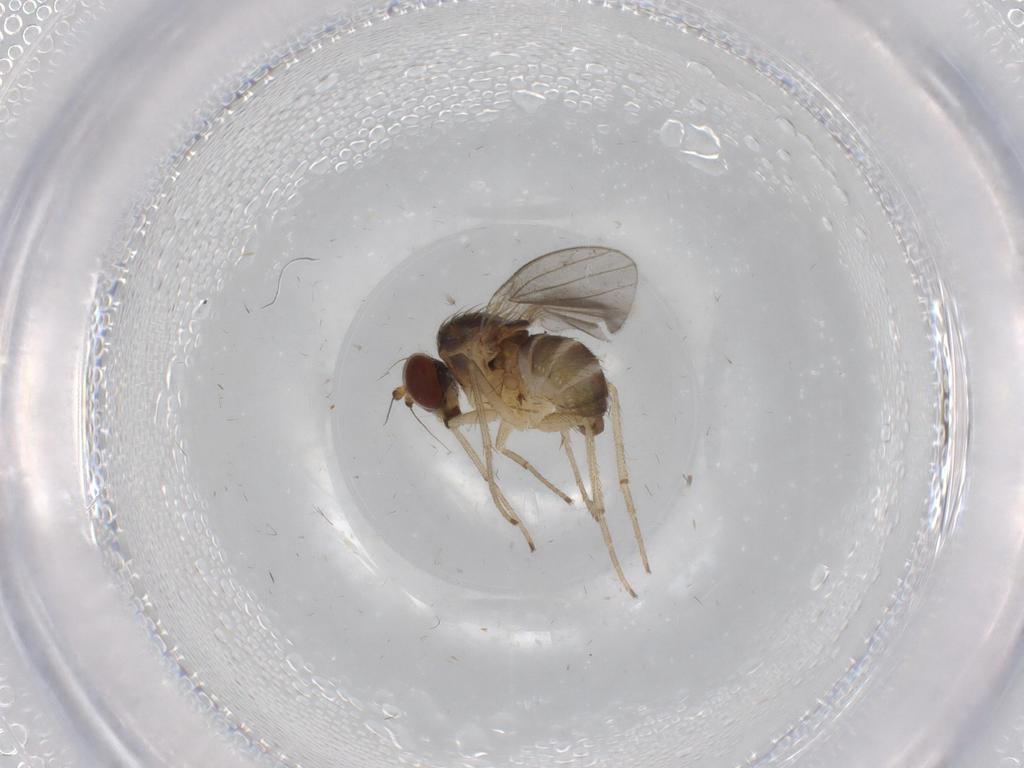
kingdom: Animalia
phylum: Arthropoda
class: Insecta
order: Diptera
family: Dolichopodidae
